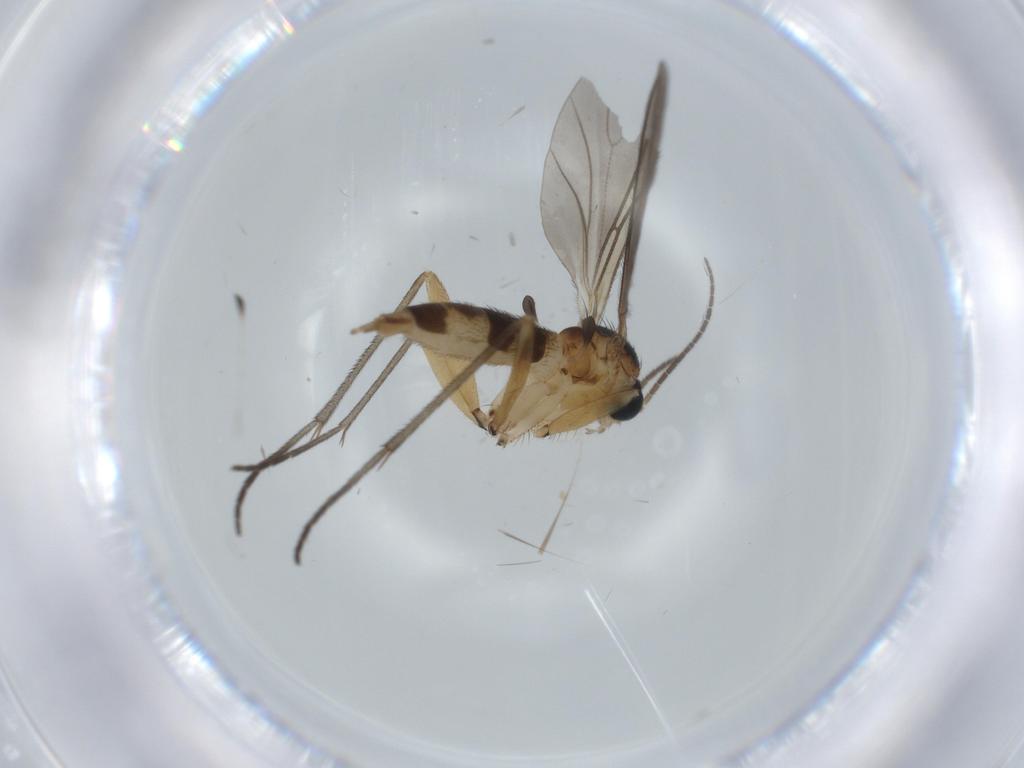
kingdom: Animalia
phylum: Arthropoda
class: Insecta
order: Diptera
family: Sciaridae
